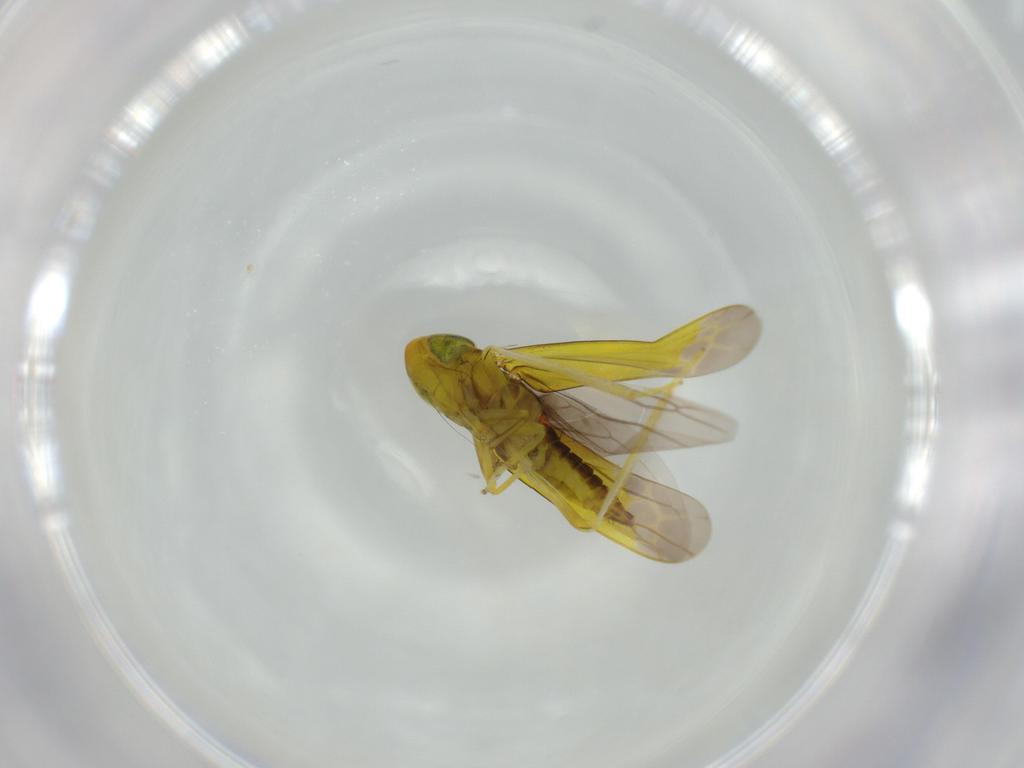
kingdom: Animalia
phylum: Arthropoda
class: Insecta
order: Hemiptera
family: Cicadellidae
